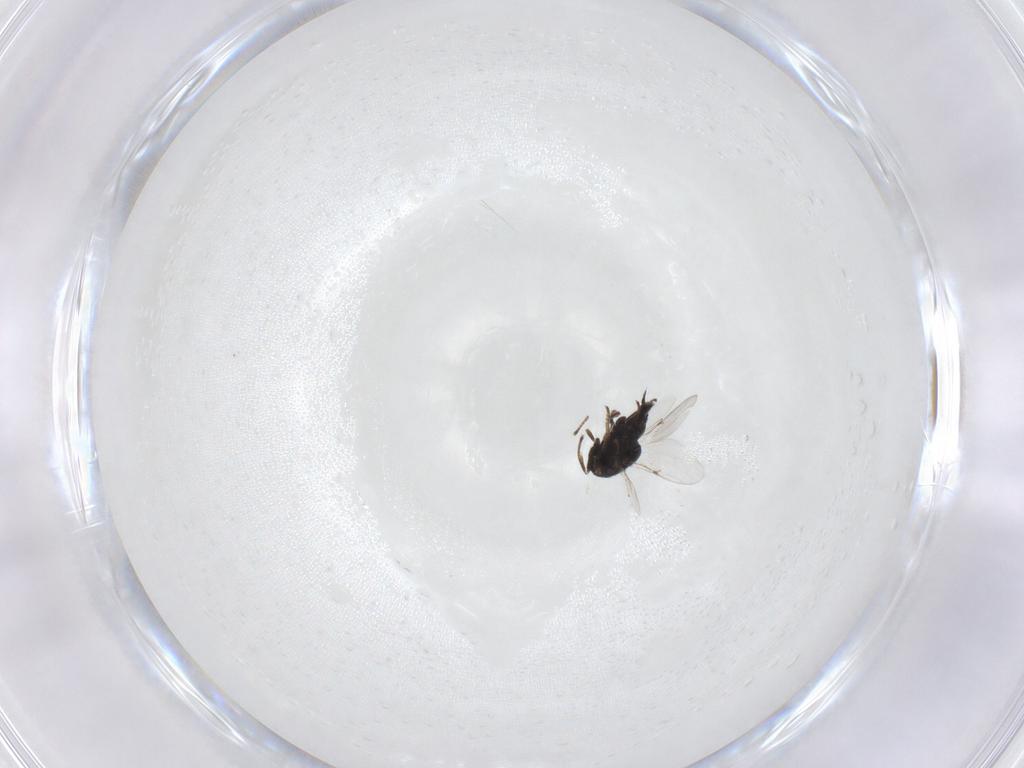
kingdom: Animalia
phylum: Arthropoda
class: Insecta
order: Hymenoptera
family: Encyrtidae
